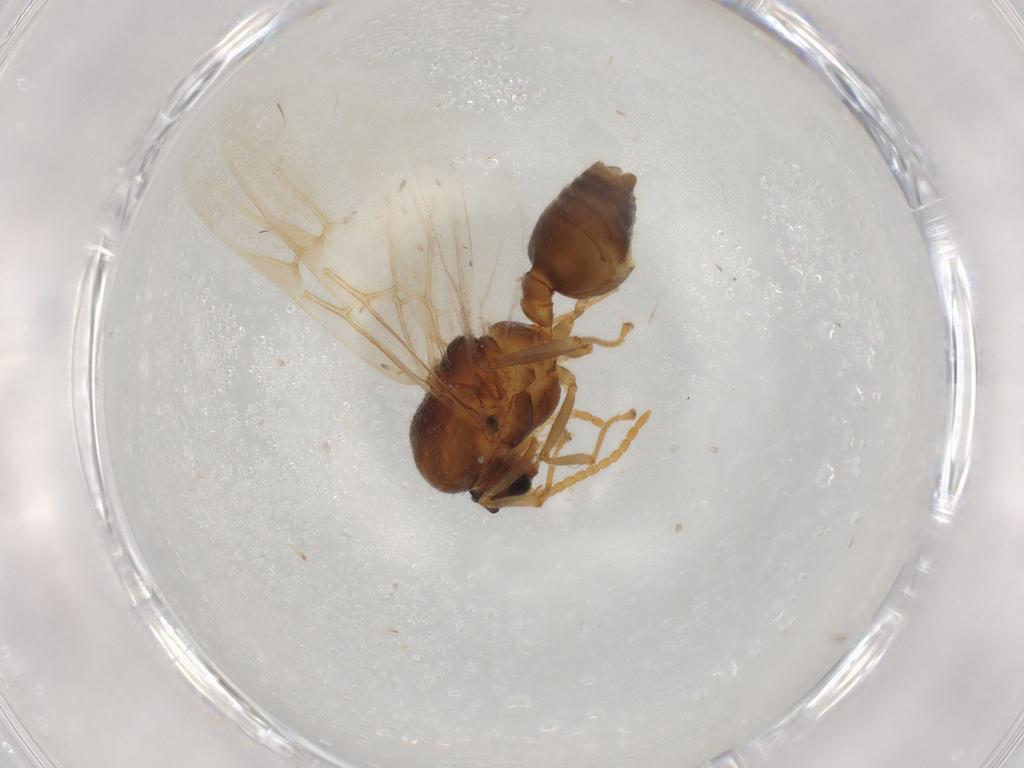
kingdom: Animalia
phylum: Arthropoda
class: Insecta
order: Hymenoptera
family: Formicidae
